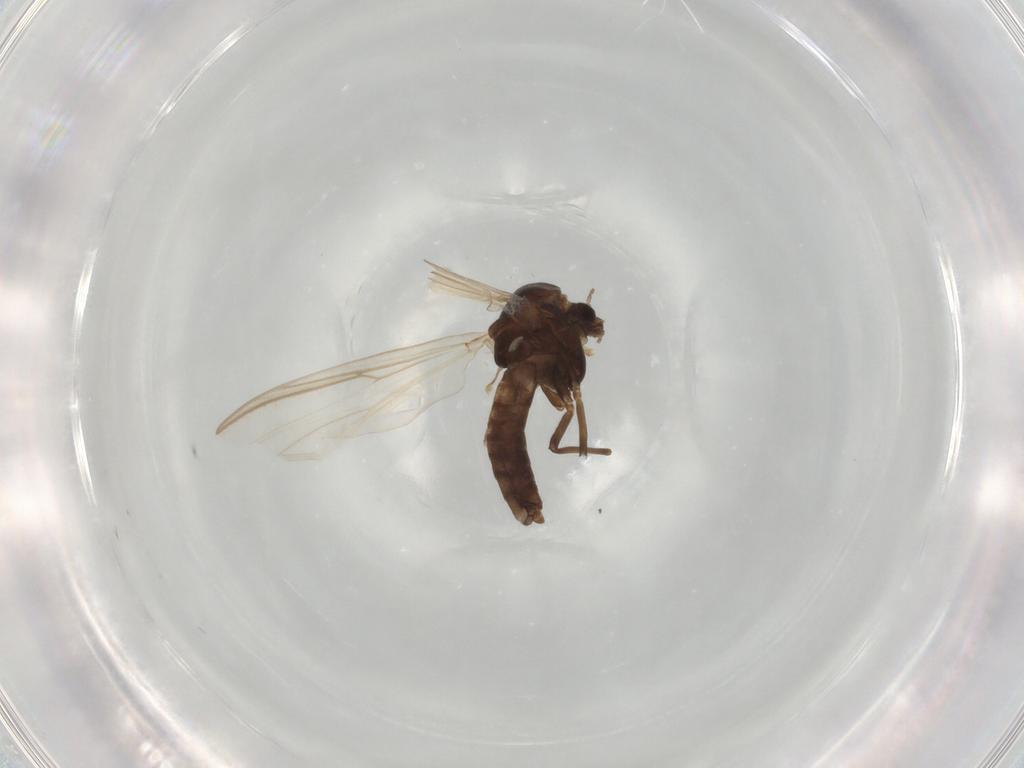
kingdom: Animalia
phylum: Arthropoda
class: Insecta
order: Diptera
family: Chironomidae
